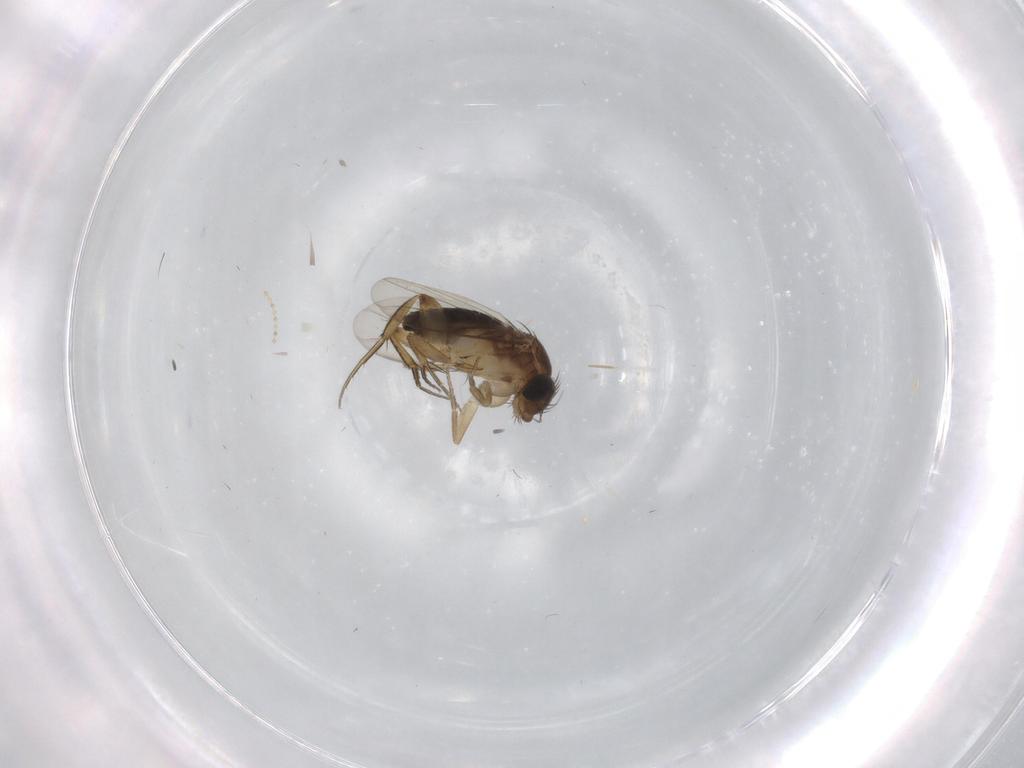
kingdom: Animalia
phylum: Arthropoda
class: Insecta
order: Diptera
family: Phoridae
